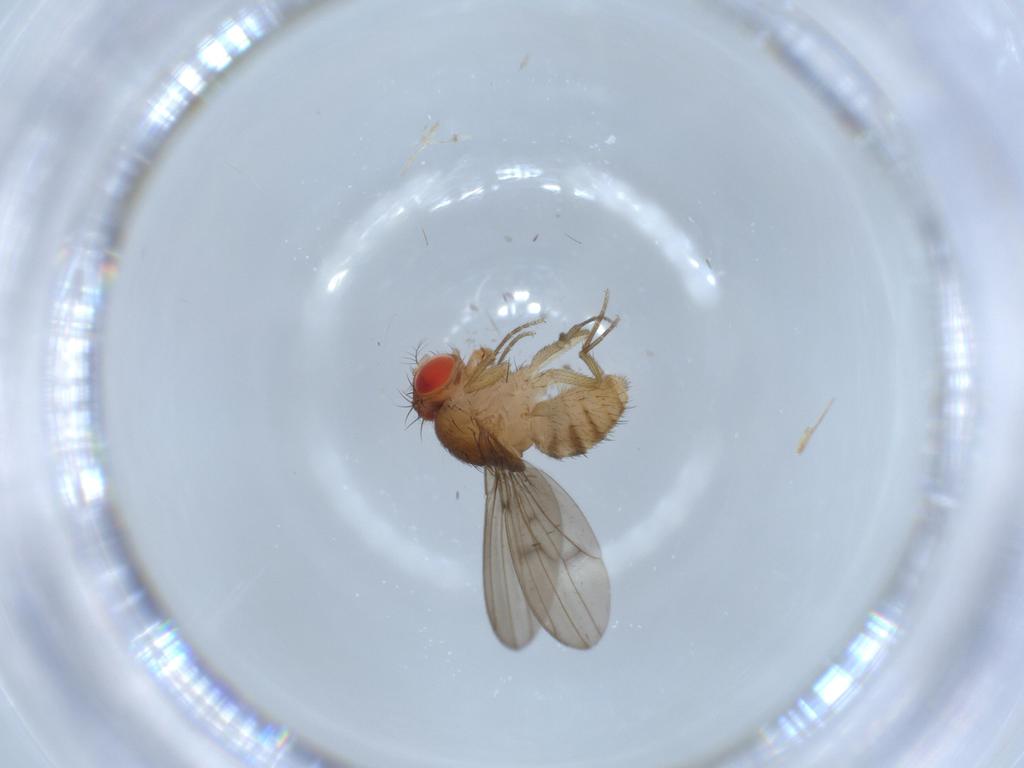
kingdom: Animalia
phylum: Arthropoda
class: Insecta
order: Diptera
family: Drosophilidae
